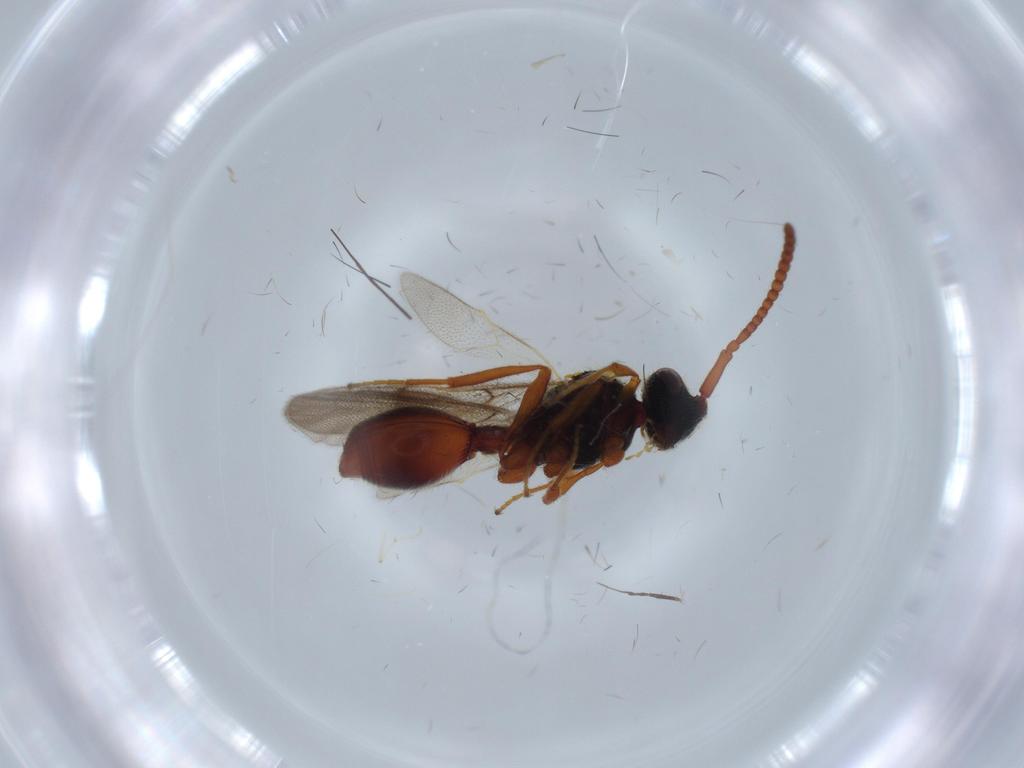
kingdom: Animalia
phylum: Arthropoda
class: Insecta
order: Hymenoptera
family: Diapriidae
